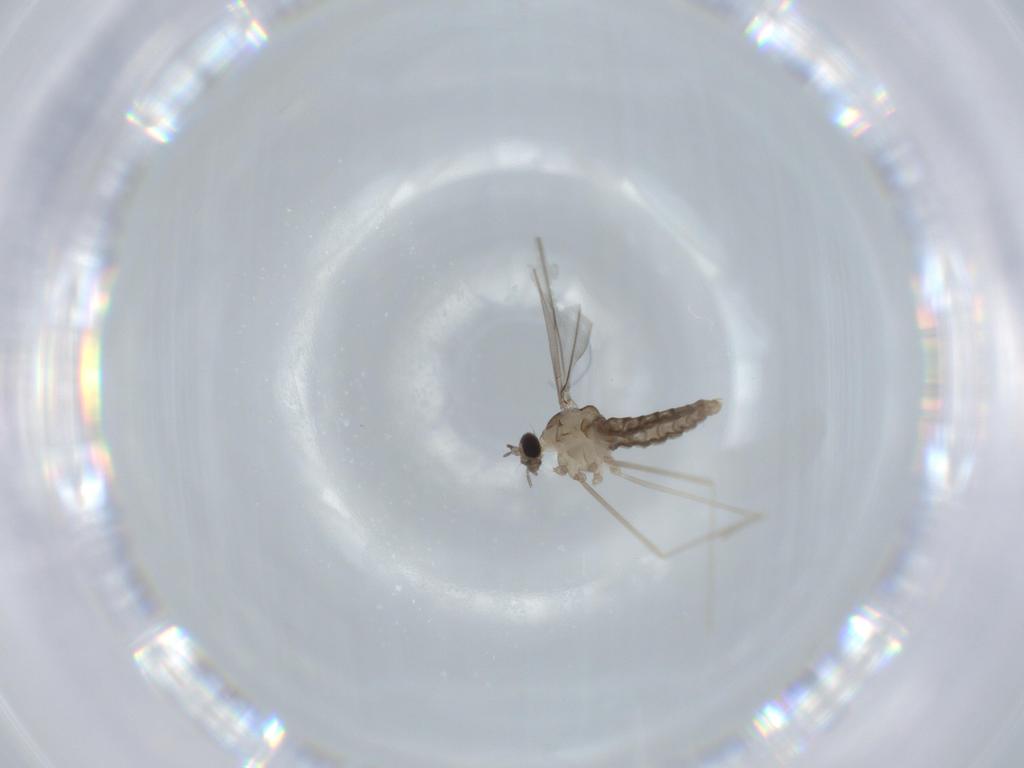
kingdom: Animalia
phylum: Arthropoda
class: Insecta
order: Diptera
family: Cecidomyiidae
